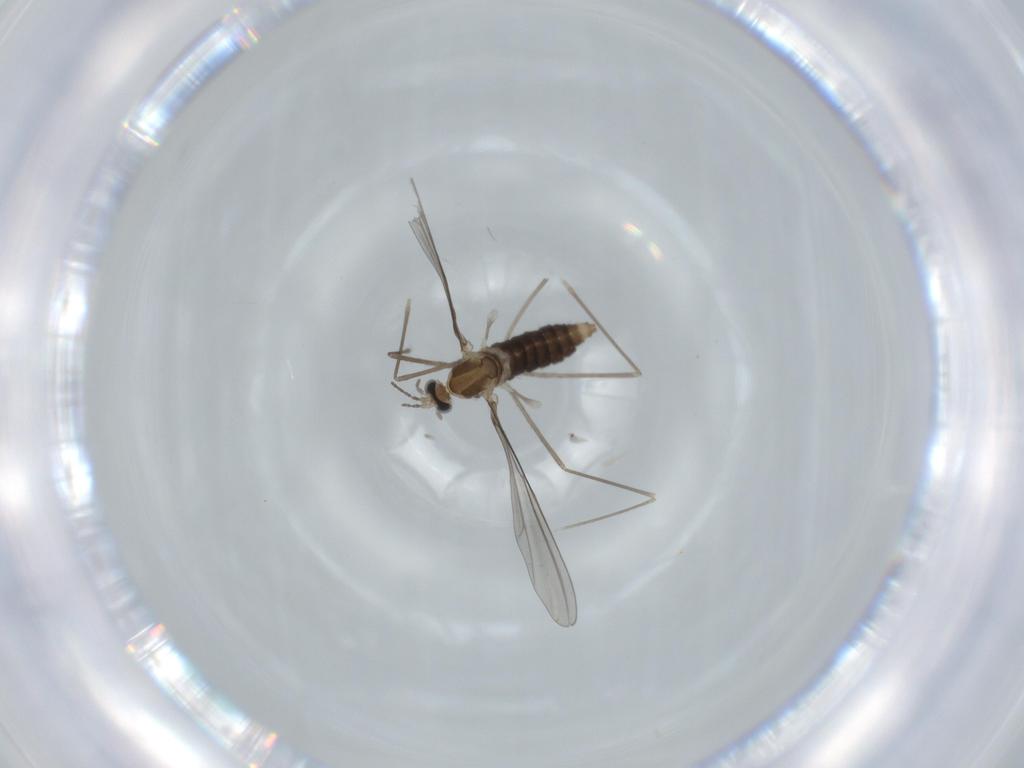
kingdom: Animalia
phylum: Arthropoda
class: Insecta
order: Diptera
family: Cecidomyiidae
